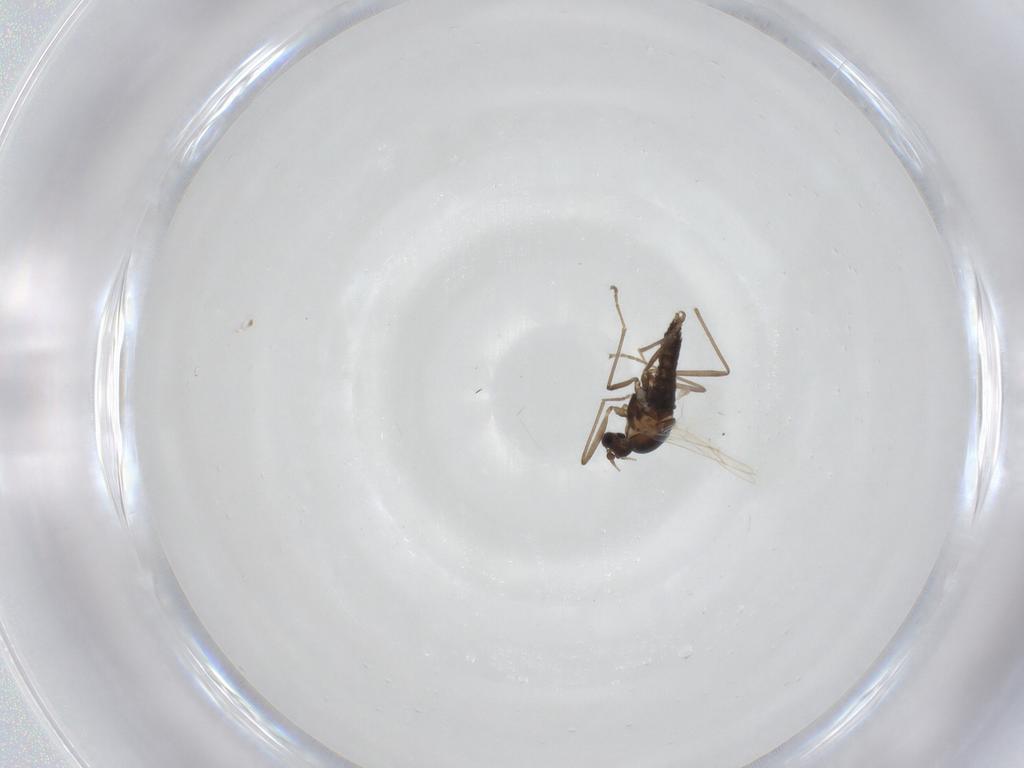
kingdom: Animalia
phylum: Arthropoda
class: Insecta
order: Diptera
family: Cecidomyiidae
